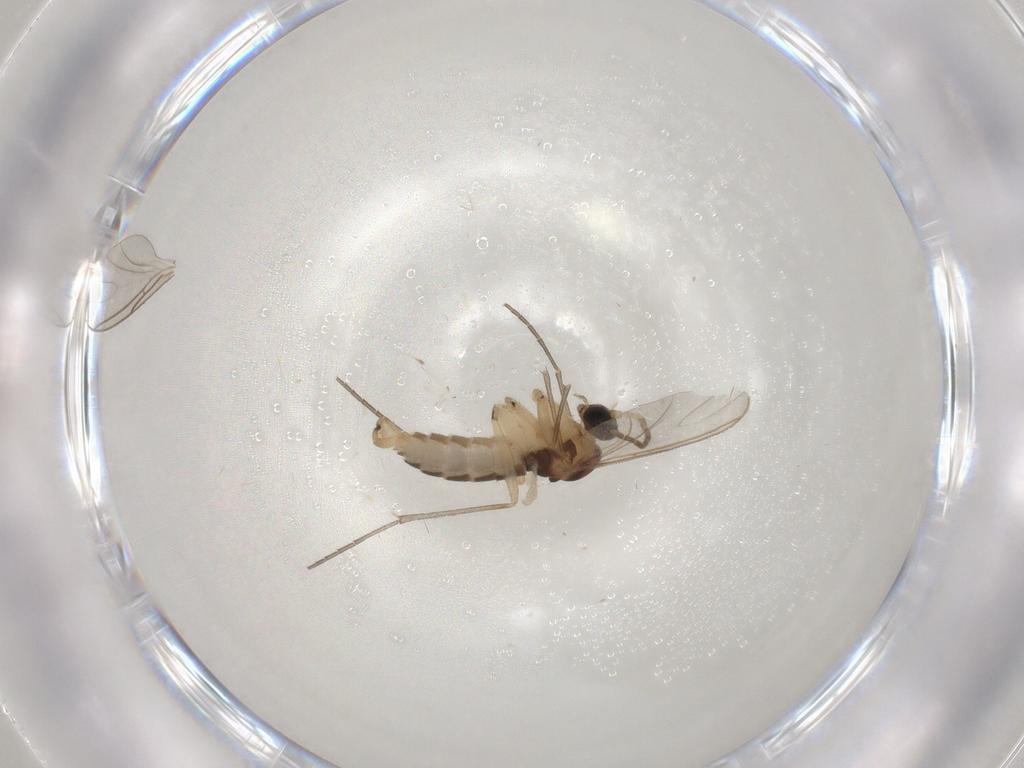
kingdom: Animalia
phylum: Arthropoda
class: Insecta
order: Diptera
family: Sciaridae
